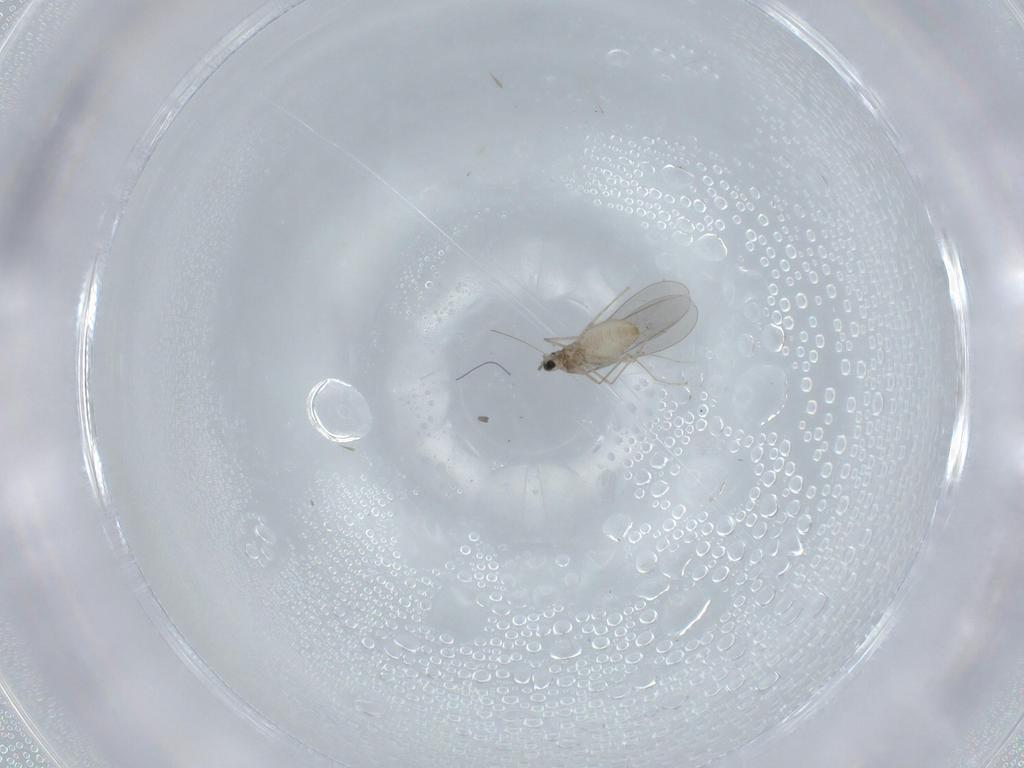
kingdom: Animalia
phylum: Arthropoda
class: Insecta
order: Diptera
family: Cecidomyiidae
